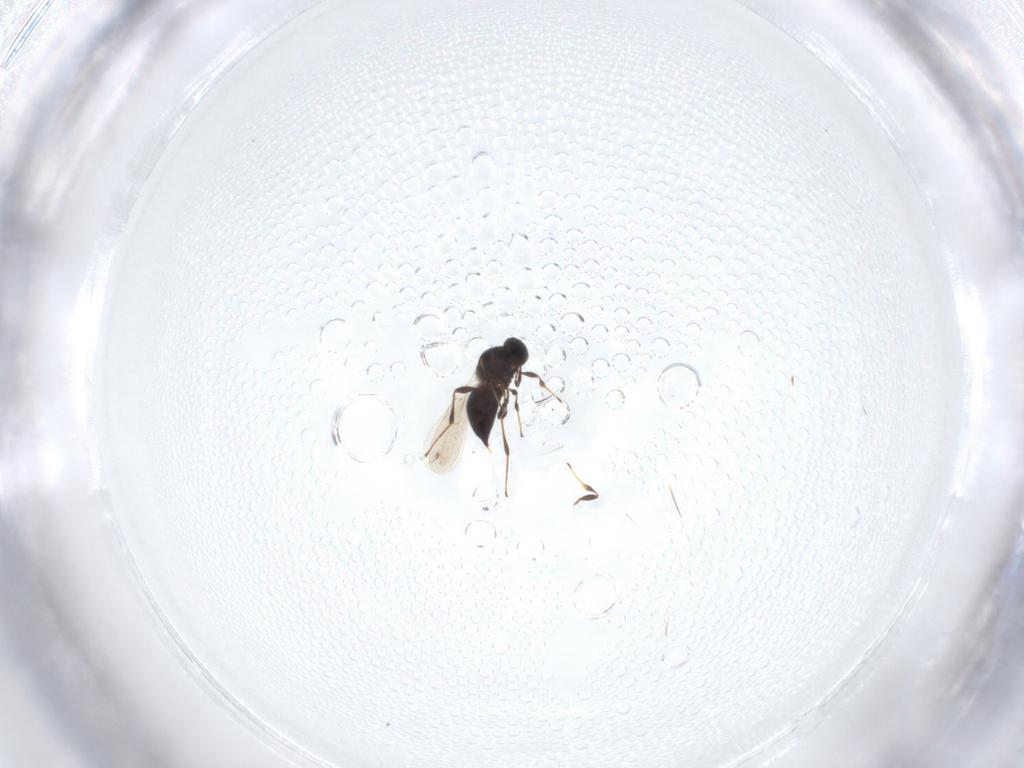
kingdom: Animalia
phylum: Arthropoda
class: Insecta
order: Hymenoptera
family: Platygastridae
